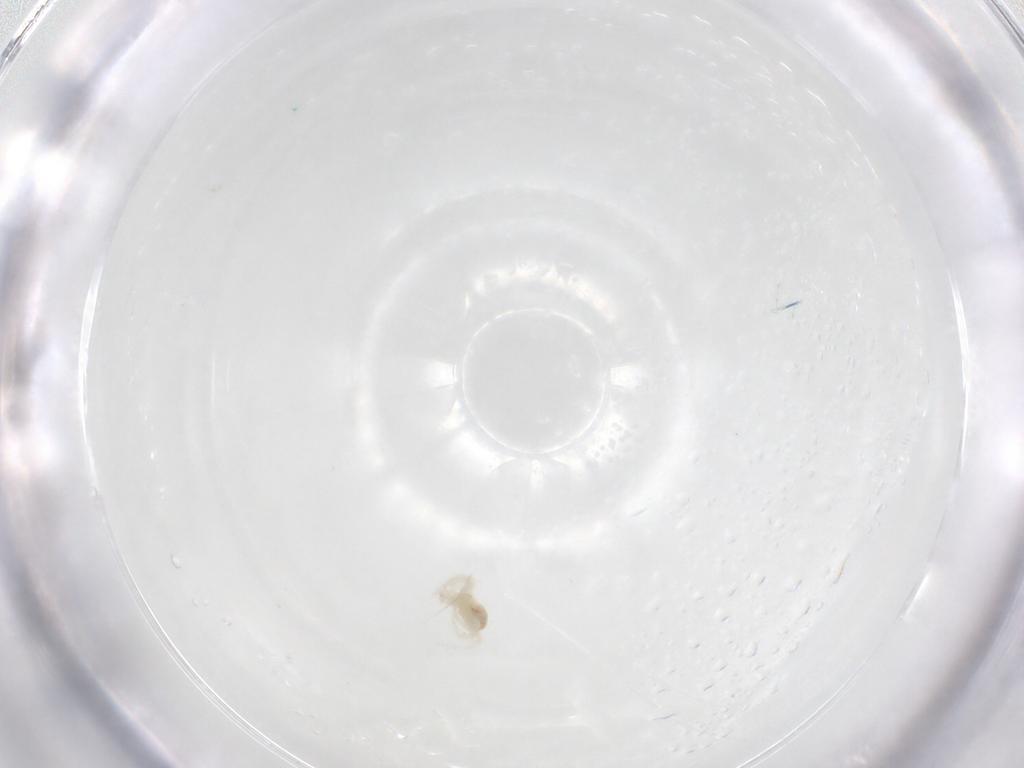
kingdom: Animalia
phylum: Arthropoda
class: Arachnida
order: Trombidiformes
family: Anystidae
